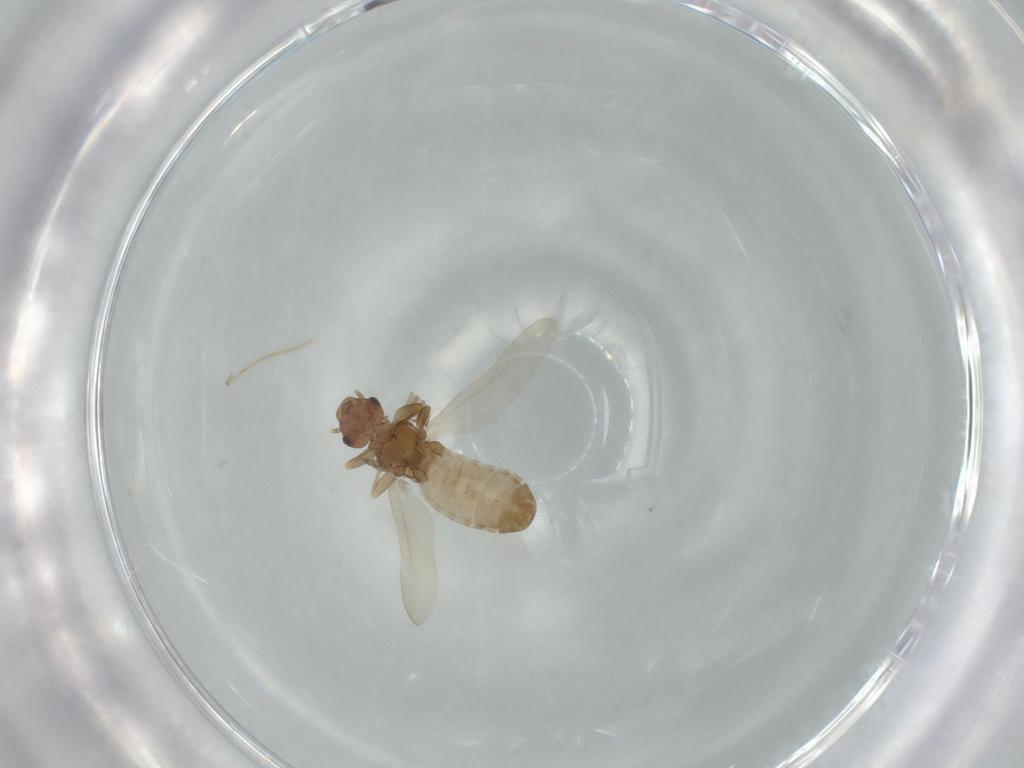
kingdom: Animalia
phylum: Arthropoda
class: Insecta
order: Psocodea
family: Liposcelididae
